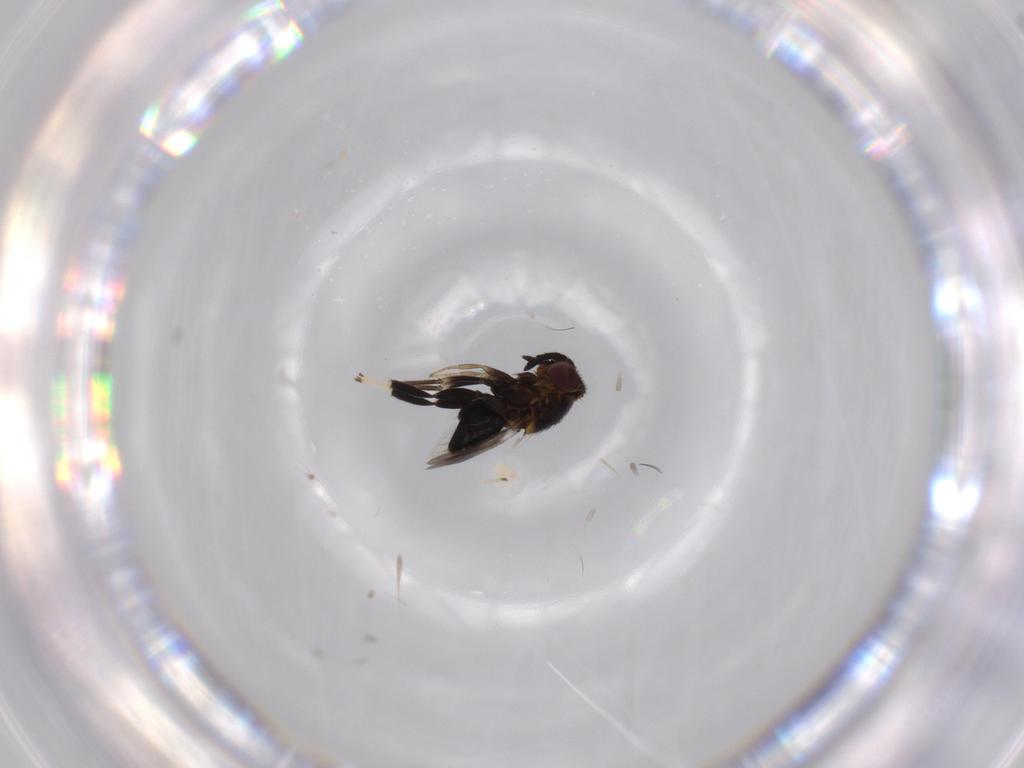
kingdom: Animalia
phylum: Arthropoda
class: Insecta
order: Hymenoptera
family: Aphelinidae
